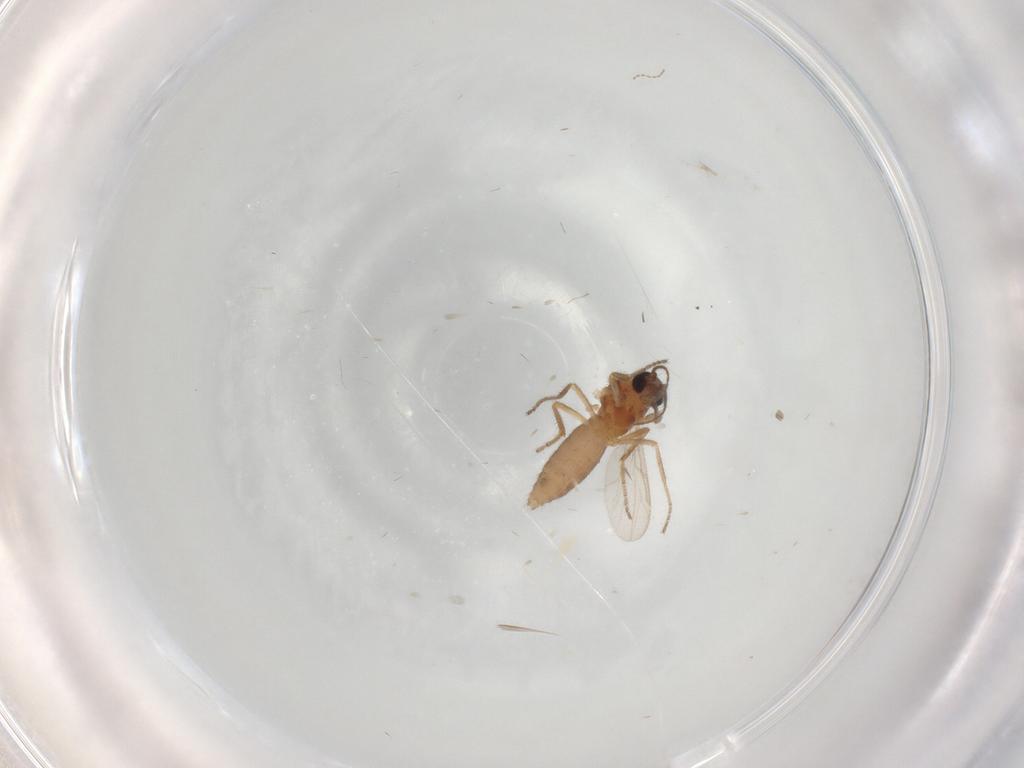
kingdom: Animalia
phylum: Arthropoda
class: Insecta
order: Diptera
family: Cecidomyiidae
